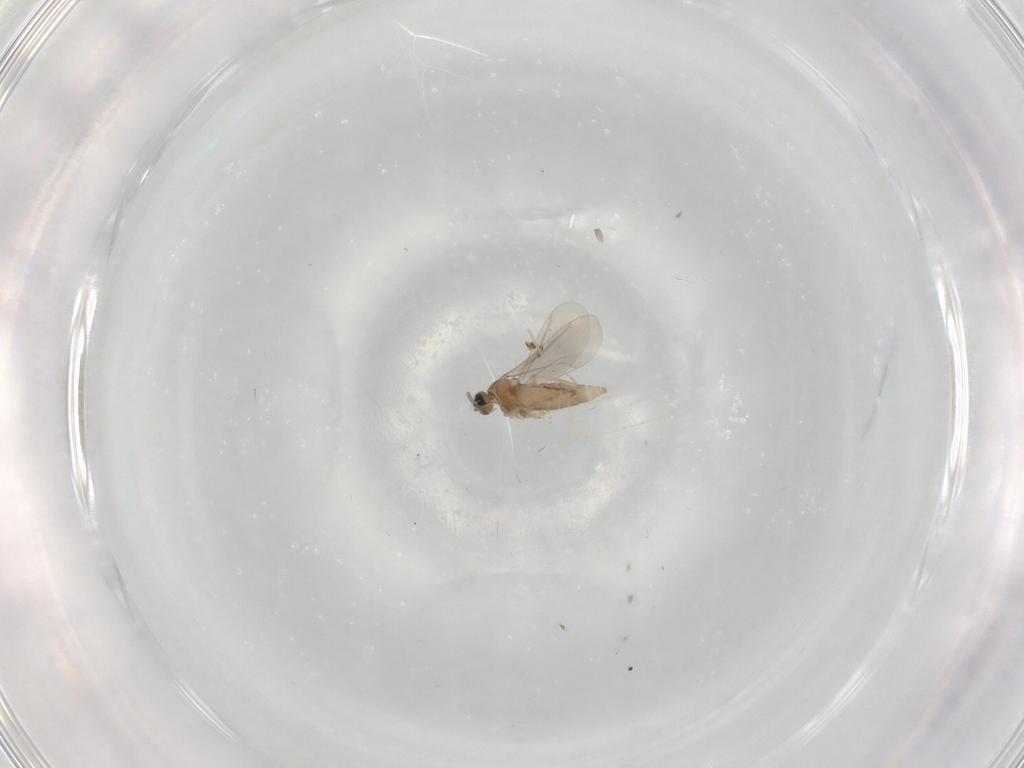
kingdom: Animalia
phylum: Arthropoda
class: Insecta
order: Diptera
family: Cecidomyiidae
